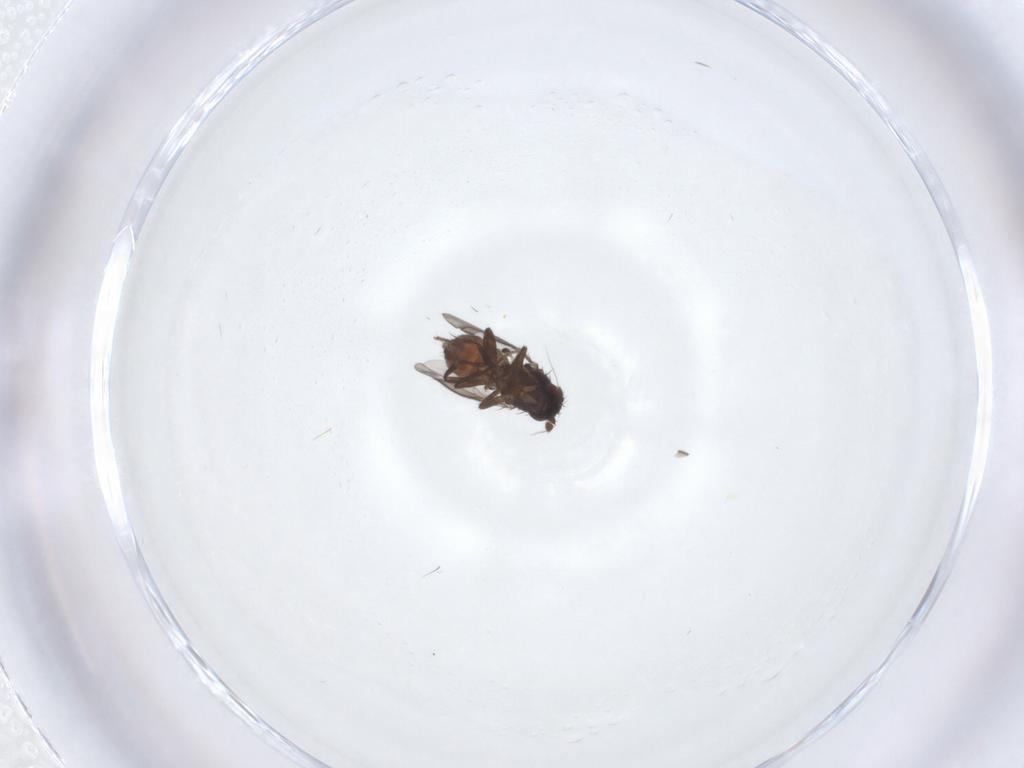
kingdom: Animalia
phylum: Arthropoda
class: Insecta
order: Diptera
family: Sphaeroceridae
